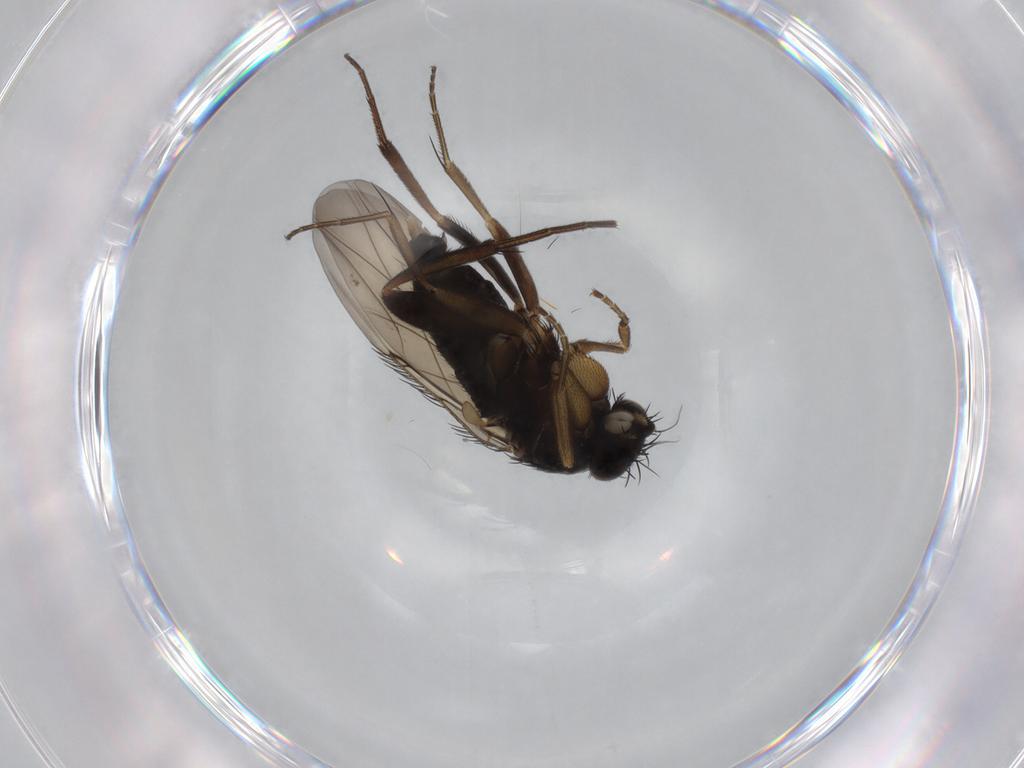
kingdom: Animalia
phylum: Arthropoda
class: Insecta
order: Diptera
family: Phoridae
